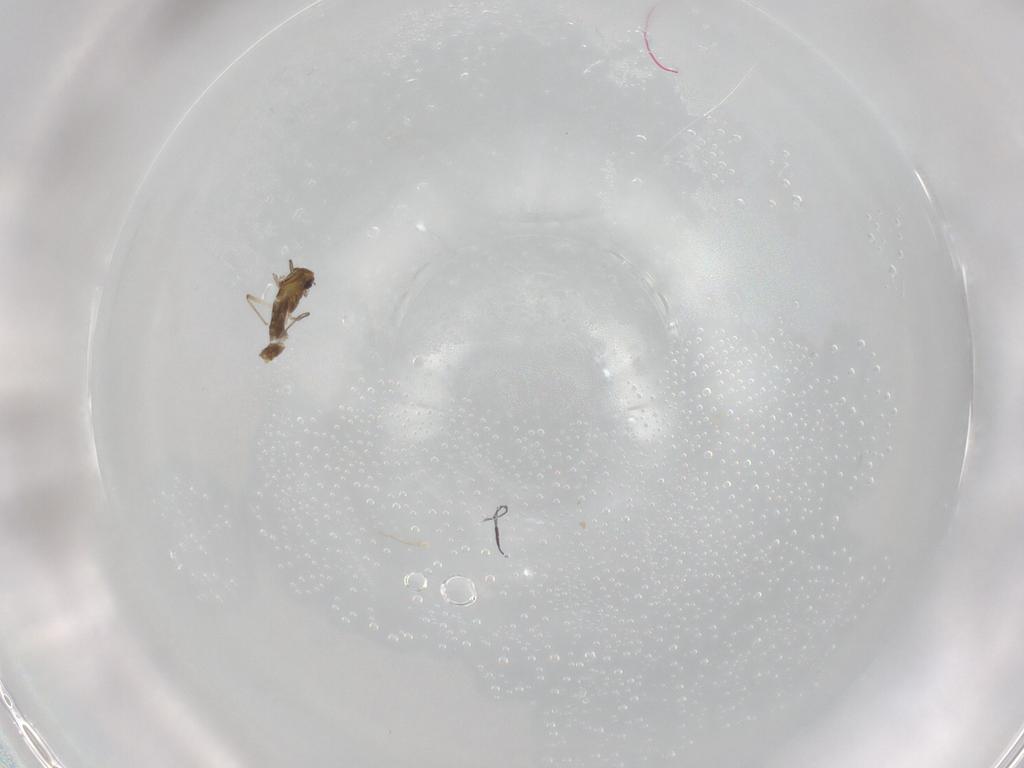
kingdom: Animalia
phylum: Arthropoda
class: Insecta
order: Diptera
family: Chironomidae
